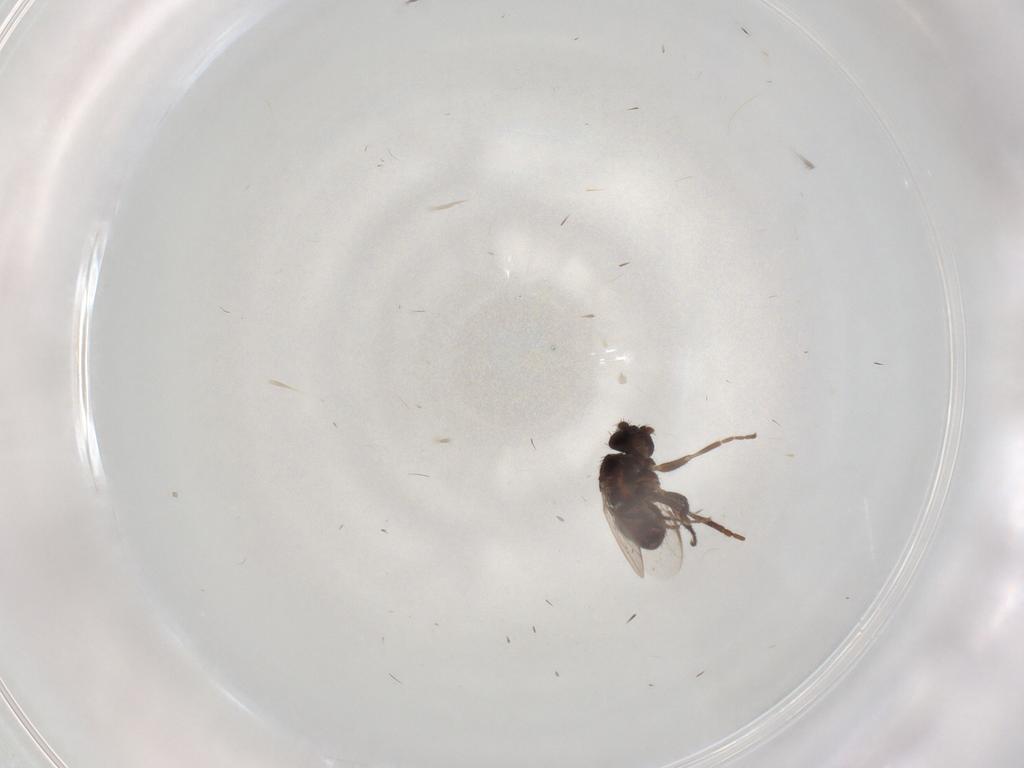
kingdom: Animalia
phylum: Arthropoda
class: Insecta
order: Diptera
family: Sphaeroceridae
